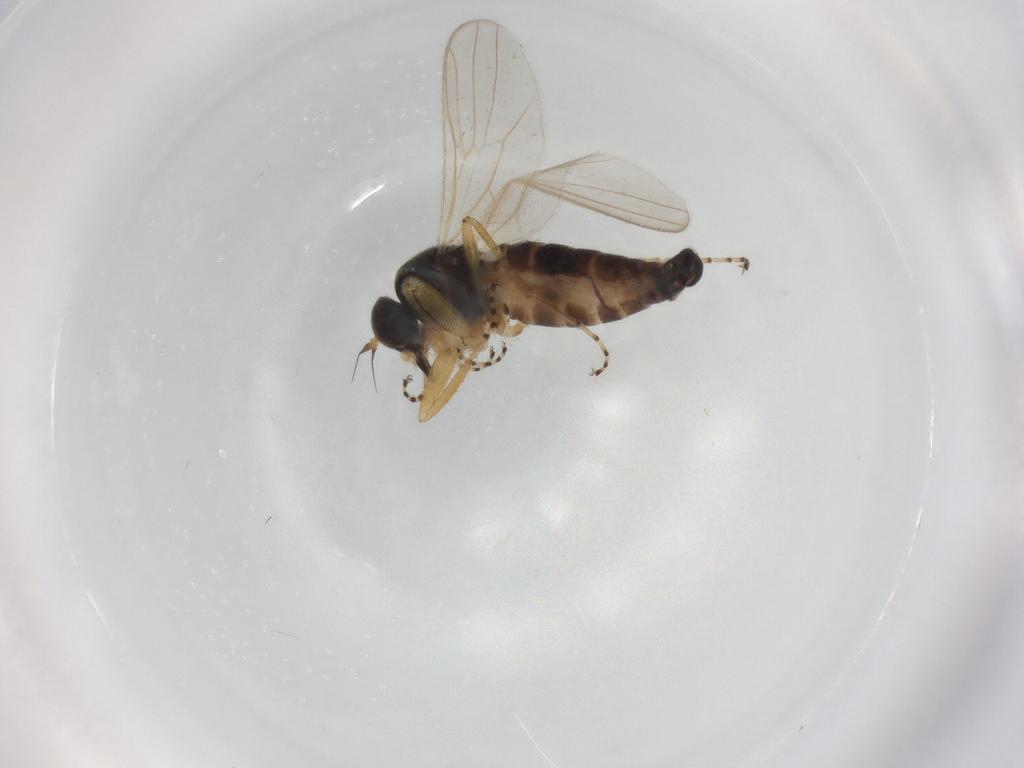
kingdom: Animalia
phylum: Arthropoda
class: Insecta
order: Diptera
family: Hybotidae
